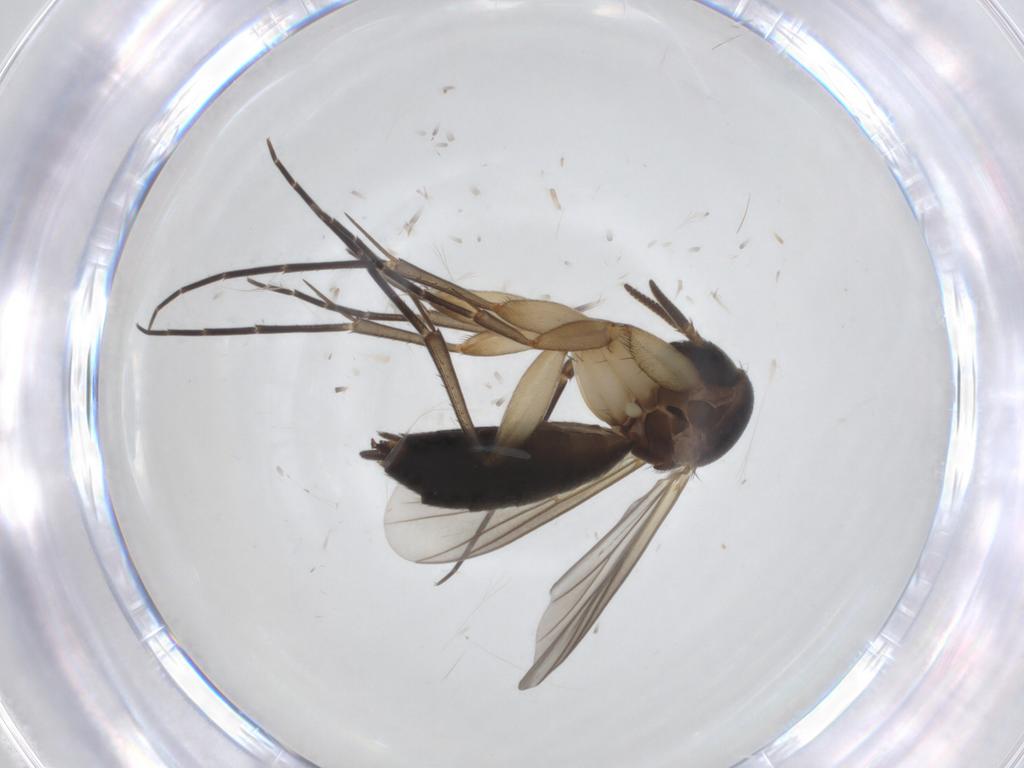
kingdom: Animalia
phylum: Arthropoda
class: Insecta
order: Diptera
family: Mycetophilidae
